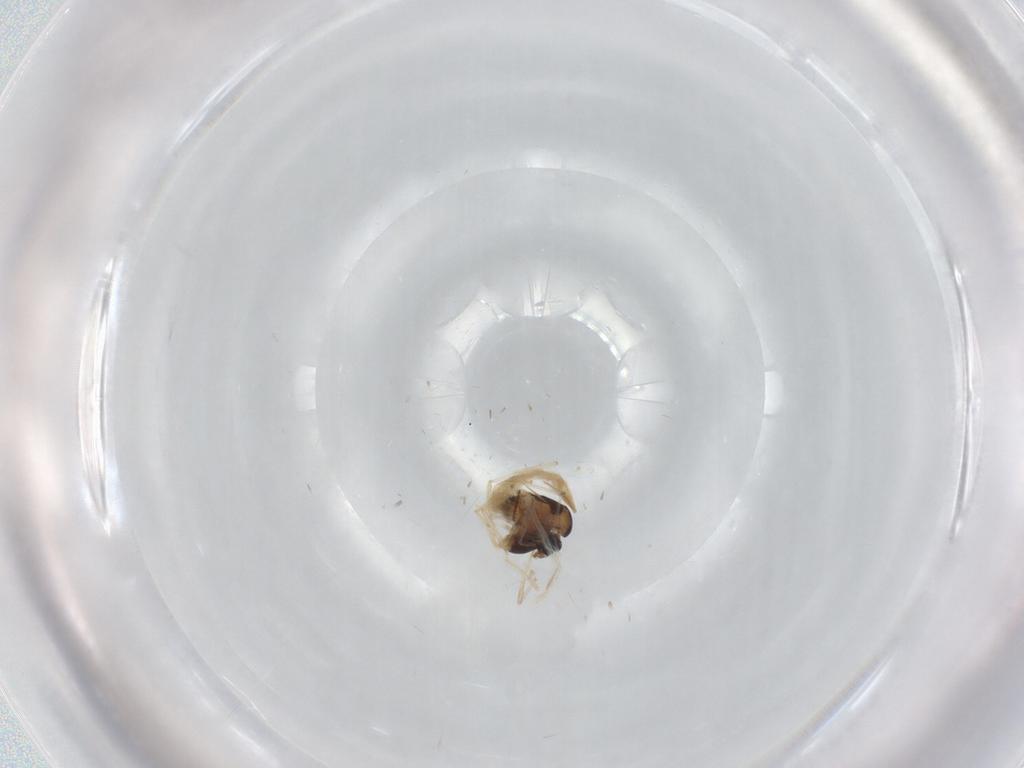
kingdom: Animalia
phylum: Arthropoda
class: Insecta
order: Diptera
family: Chironomidae
